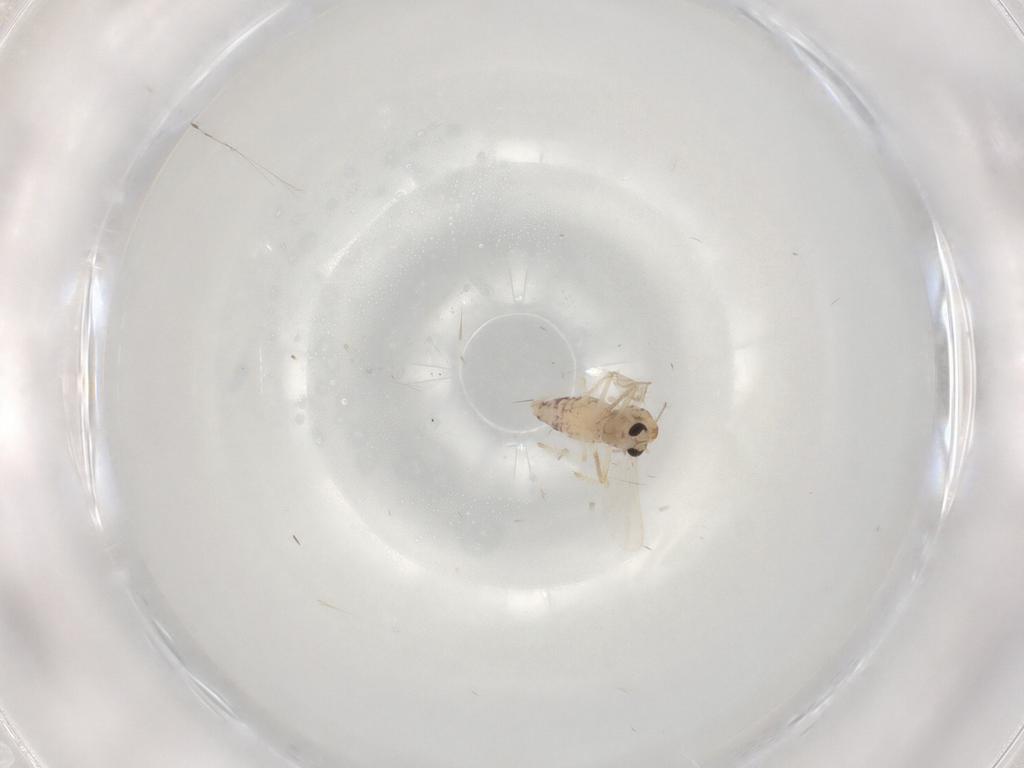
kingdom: Animalia
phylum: Arthropoda
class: Insecta
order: Diptera
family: Chironomidae
